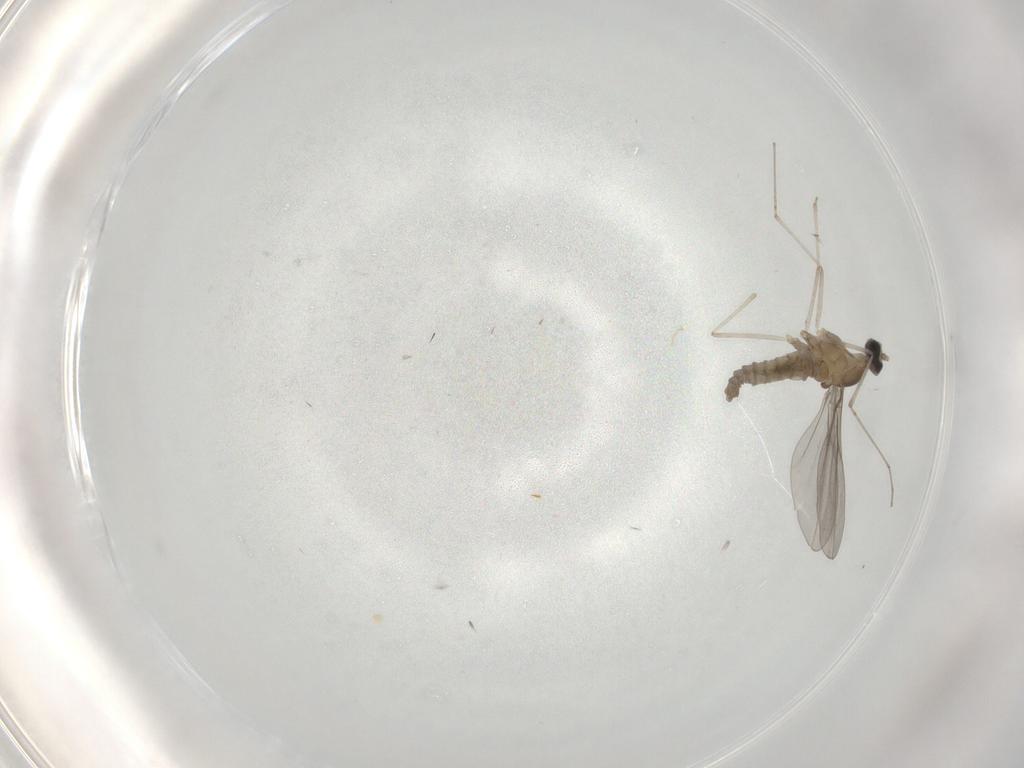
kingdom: Animalia
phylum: Arthropoda
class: Insecta
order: Diptera
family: Cecidomyiidae
